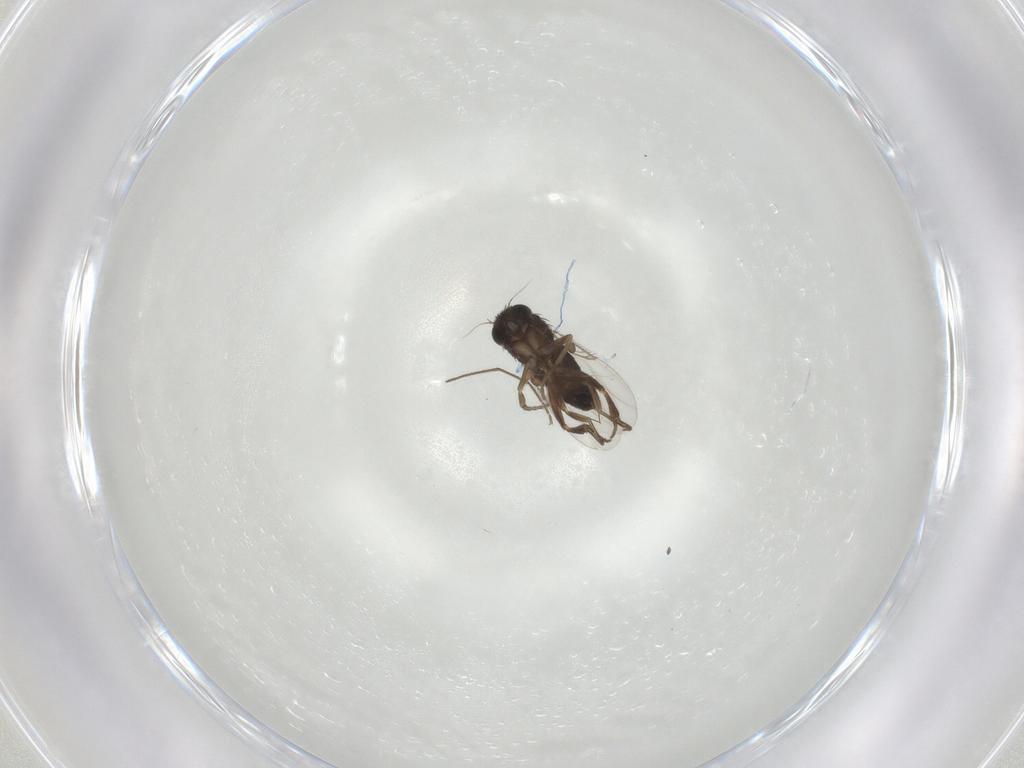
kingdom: Animalia
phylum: Arthropoda
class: Insecta
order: Diptera
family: Phoridae
